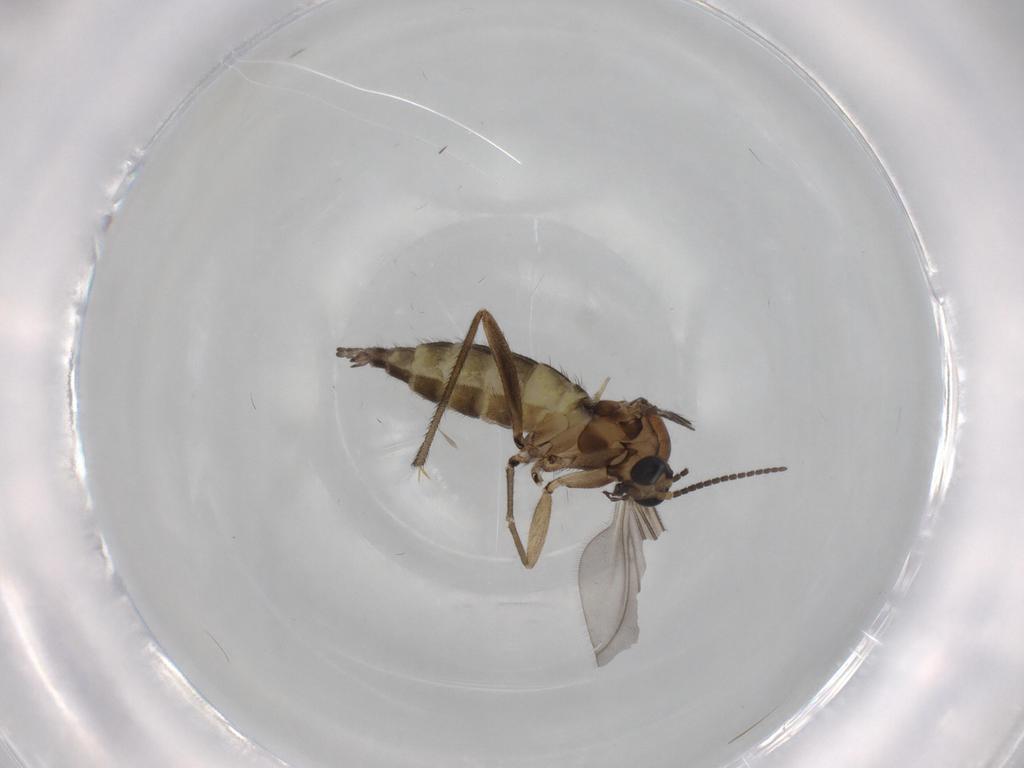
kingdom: Animalia
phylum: Arthropoda
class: Insecta
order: Diptera
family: Sciaridae
